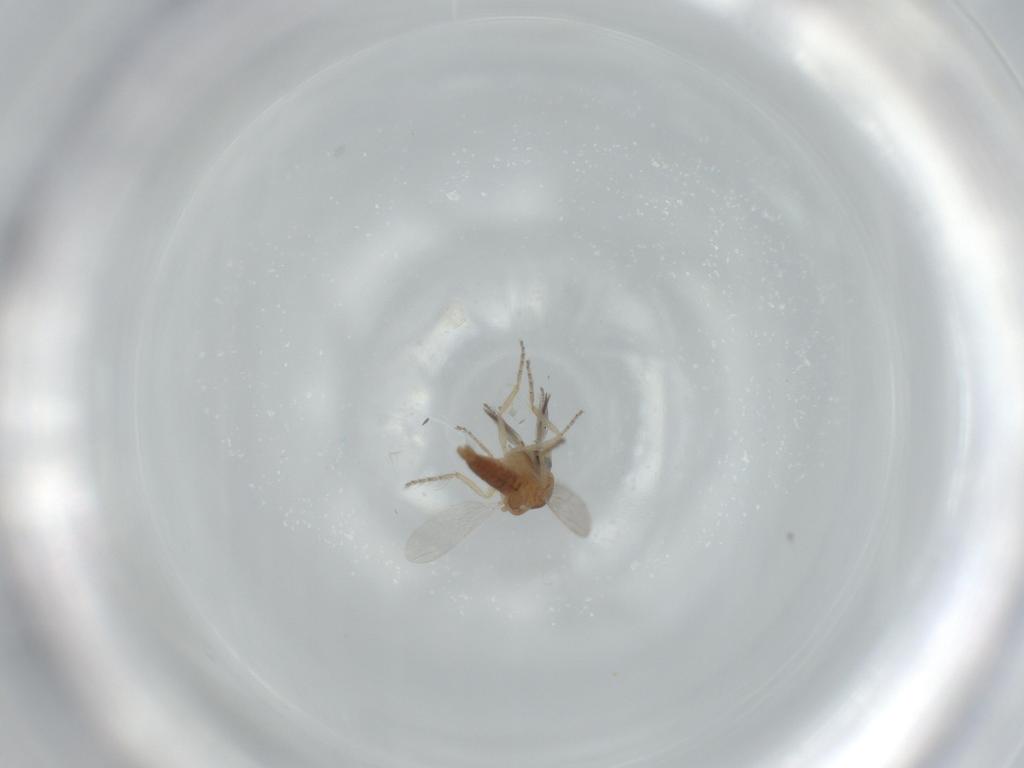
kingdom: Animalia
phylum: Arthropoda
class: Insecta
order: Diptera
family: Ceratopogonidae
